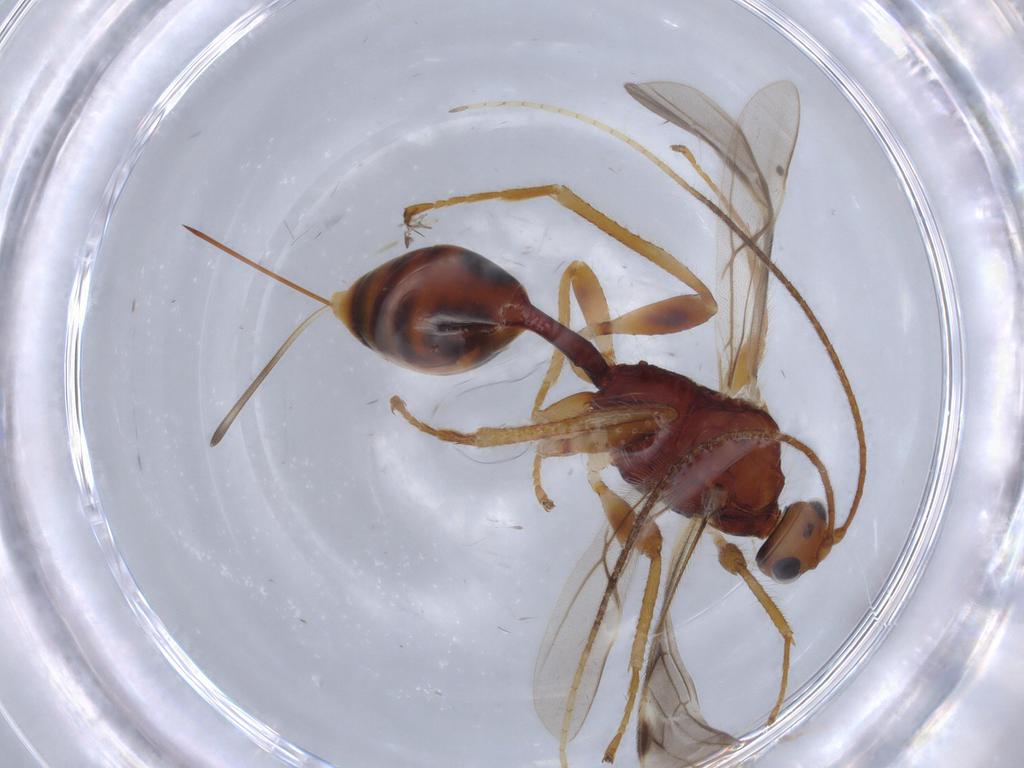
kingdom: Animalia
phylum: Arthropoda
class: Insecta
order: Hymenoptera
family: Braconidae
